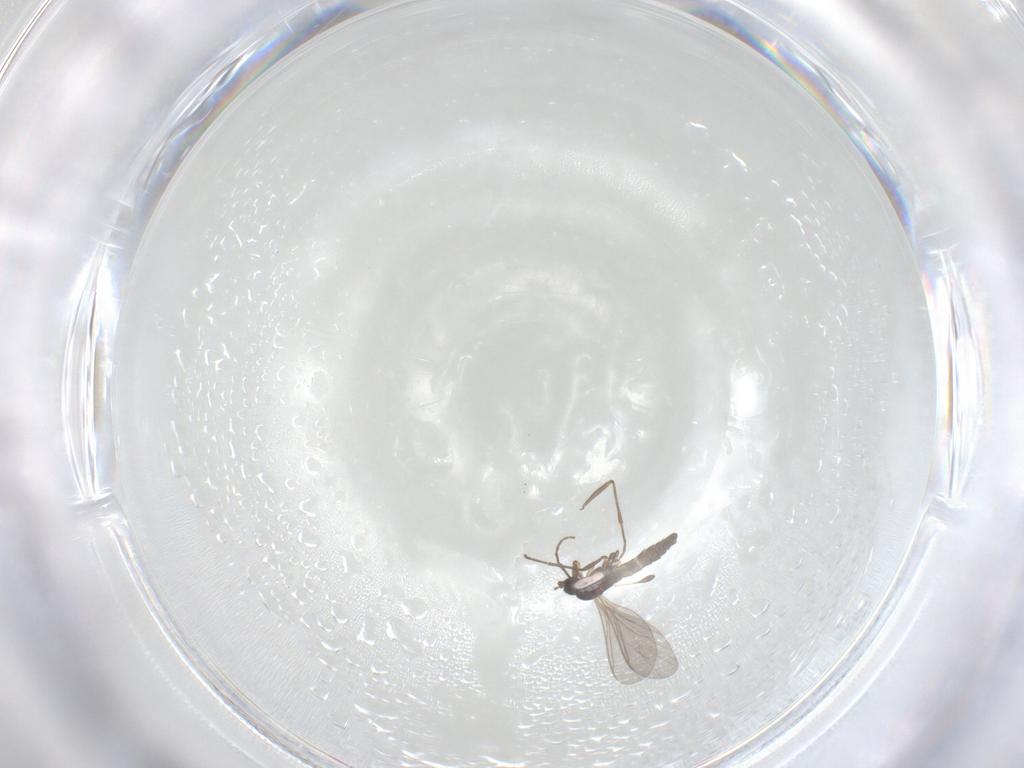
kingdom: Animalia
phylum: Arthropoda
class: Insecta
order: Diptera
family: Sciaridae
